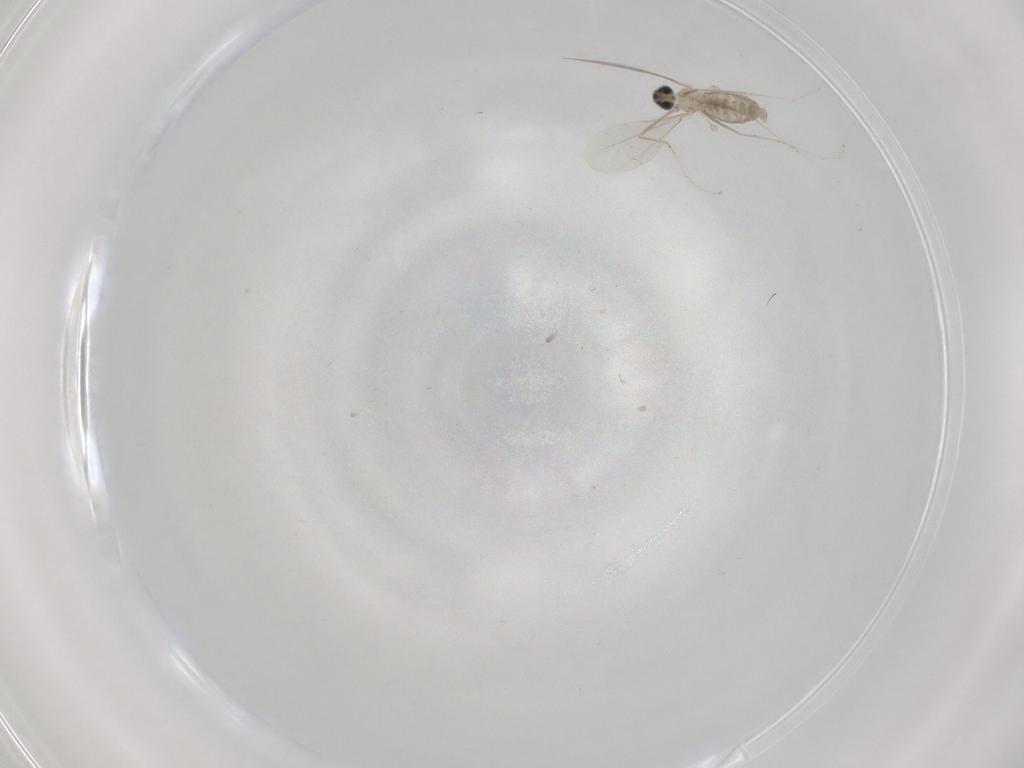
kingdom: Animalia
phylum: Arthropoda
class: Insecta
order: Diptera
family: Cecidomyiidae
